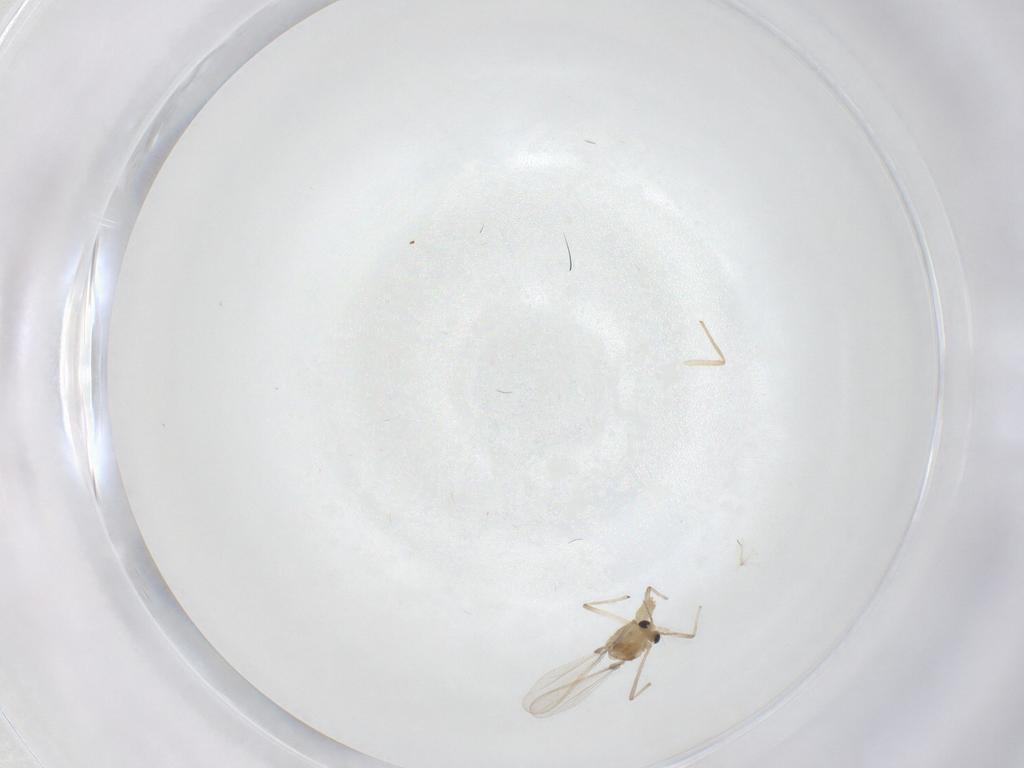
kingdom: Animalia
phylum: Arthropoda
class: Insecta
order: Diptera
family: Chironomidae
